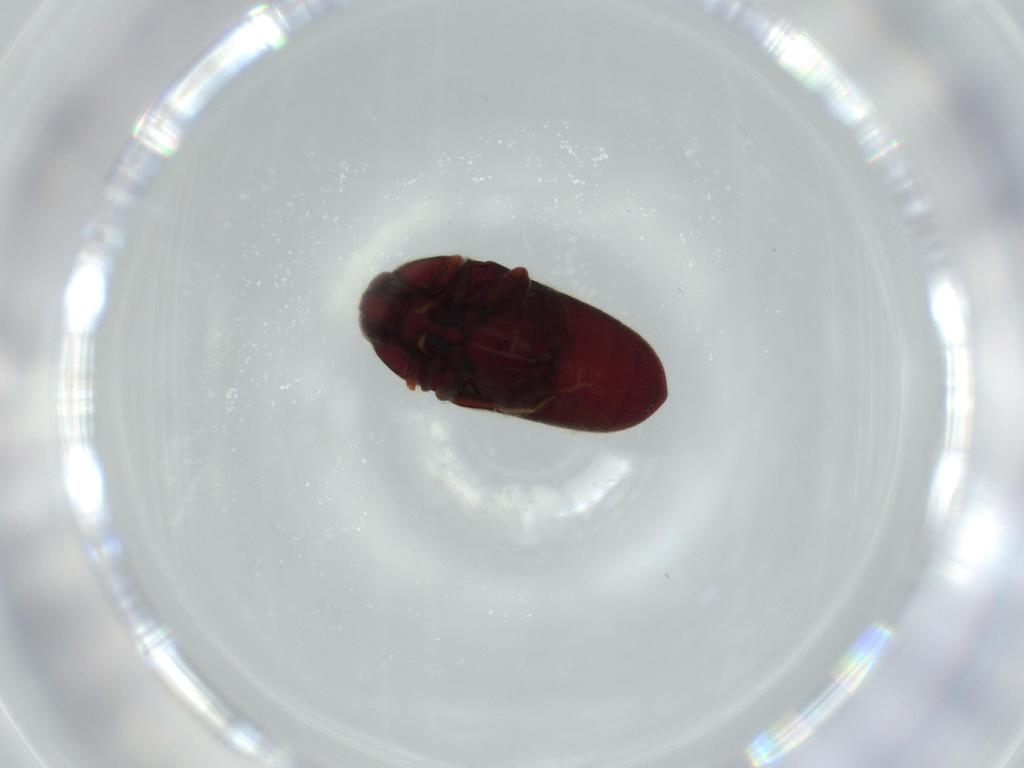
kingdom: Animalia
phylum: Arthropoda
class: Insecta
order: Coleoptera
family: Throscidae
